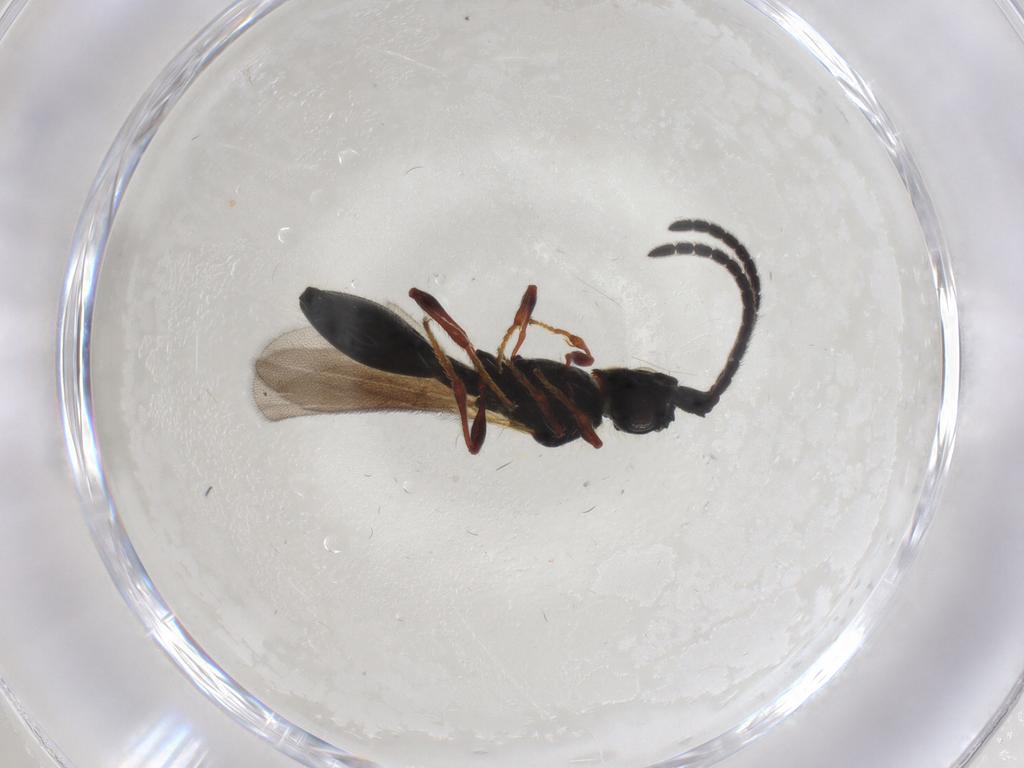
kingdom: Animalia
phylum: Arthropoda
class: Insecta
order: Hymenoptera
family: Diapriidae
